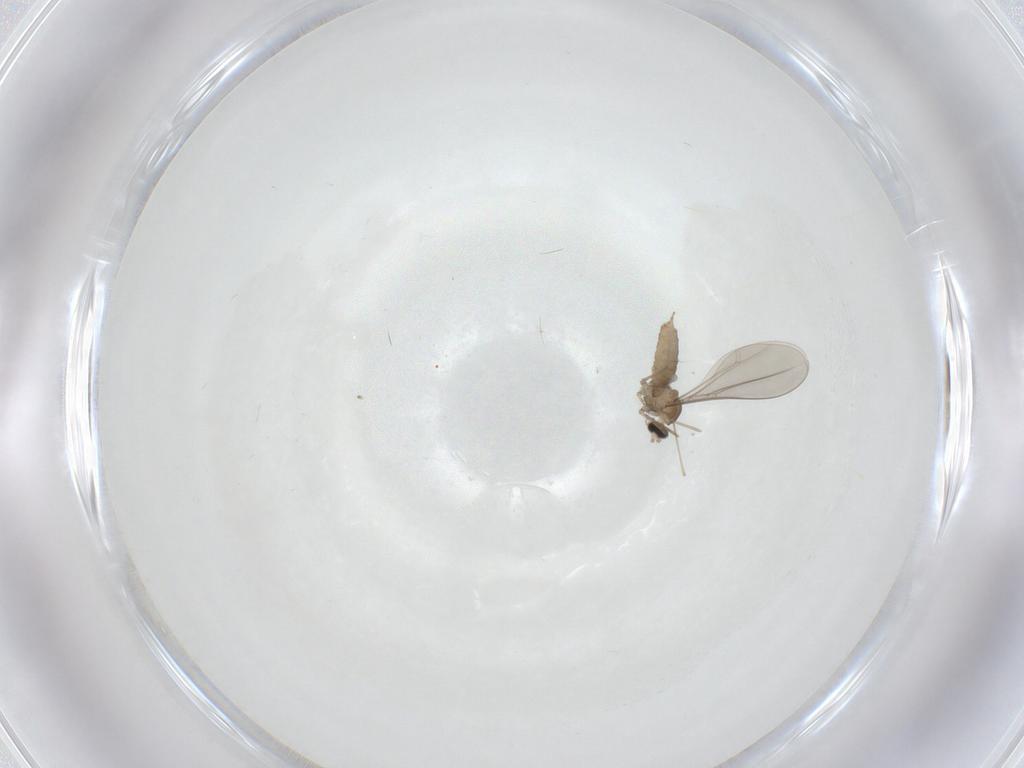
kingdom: Animalia
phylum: Arthropoda
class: Insecta
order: Diptera
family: Cecidomyiidae
